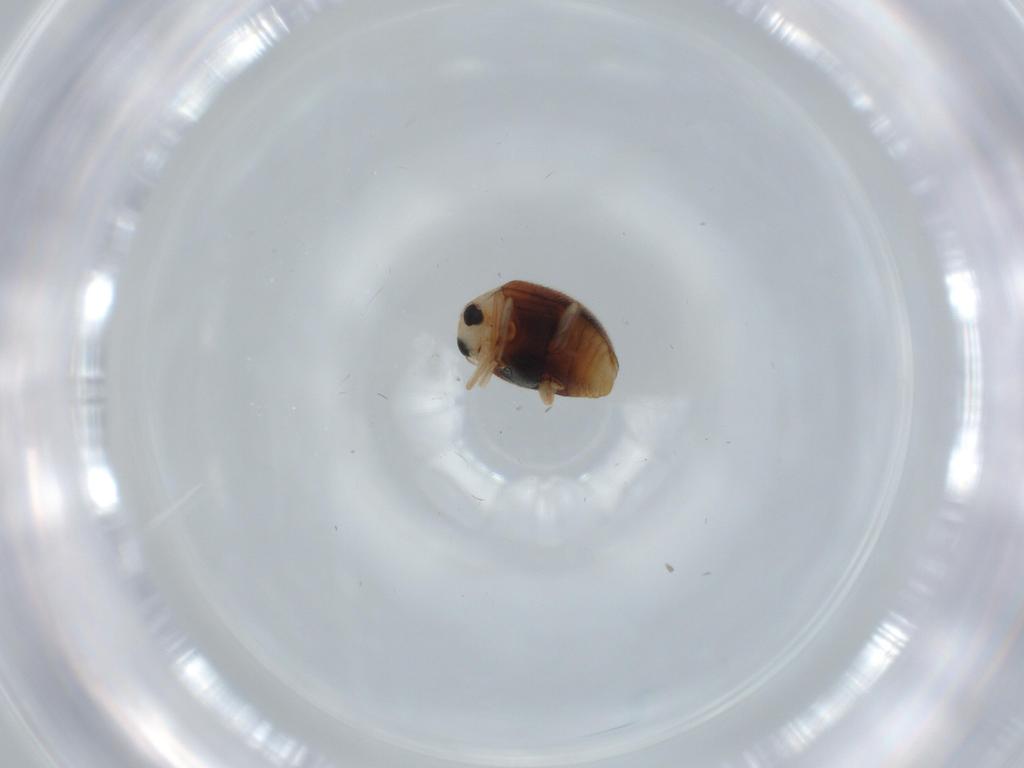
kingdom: Animalia
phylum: Arthropoda
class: Insecta
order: Coleoptera
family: Coccinellidae
